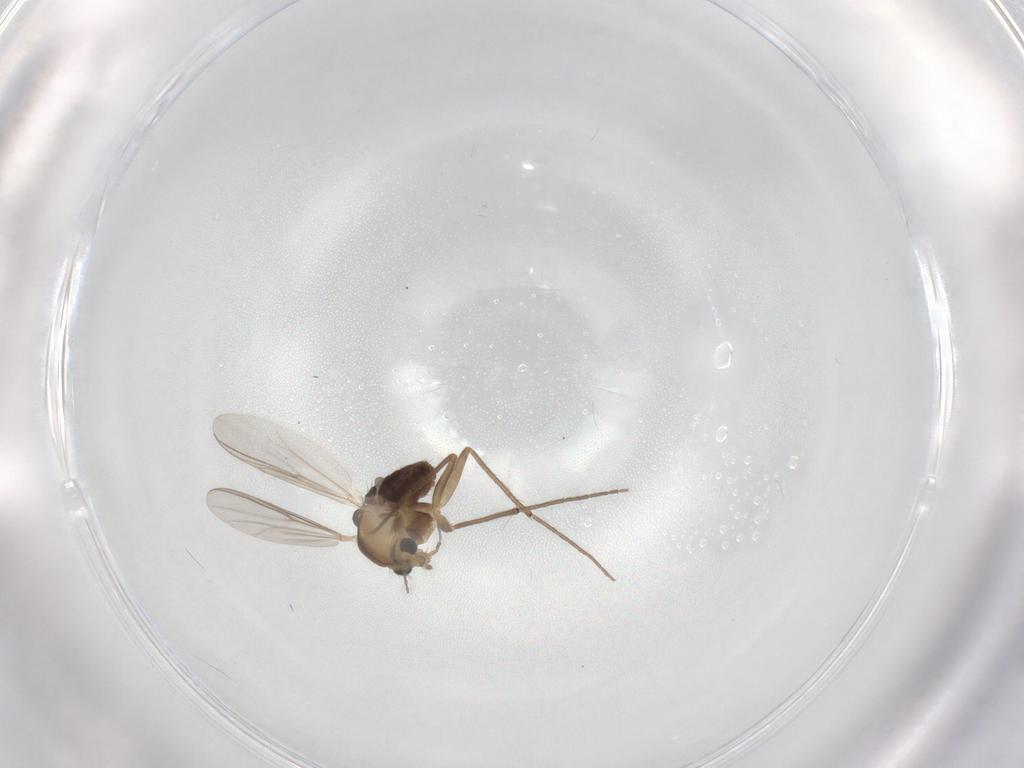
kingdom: Animalia
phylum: Arthropoda
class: Insecta
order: Diptera
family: Chironomidae
